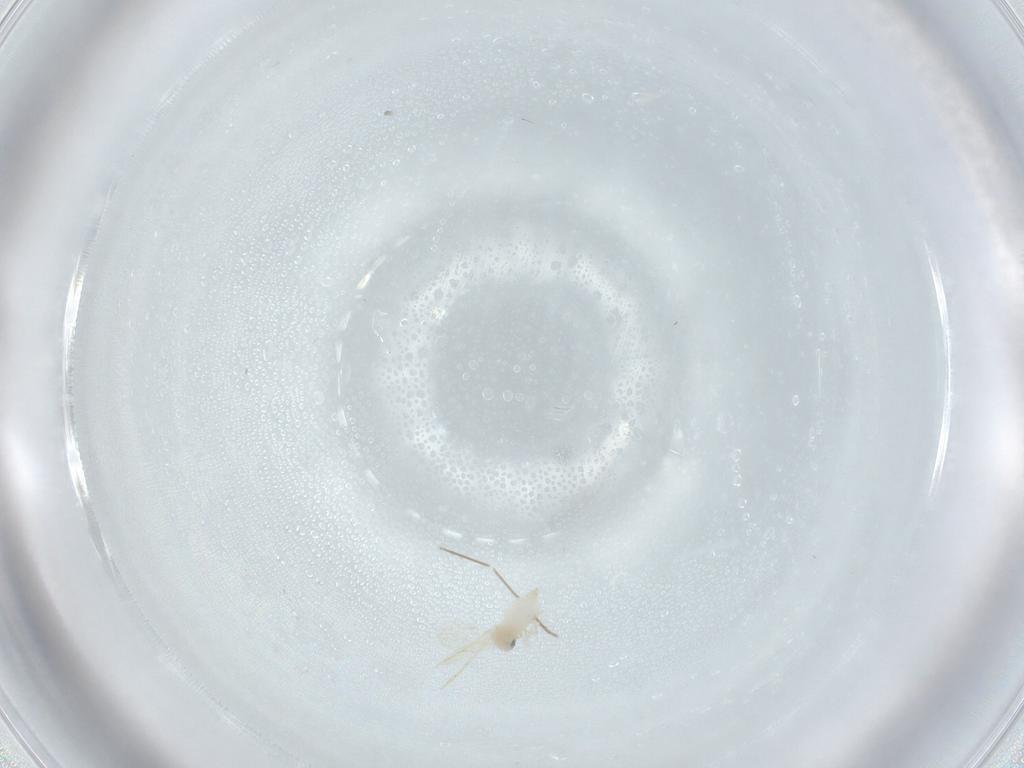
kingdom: Animalia
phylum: Arthropoda
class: Insecta
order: Hemiptera
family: Aleyrodidae
